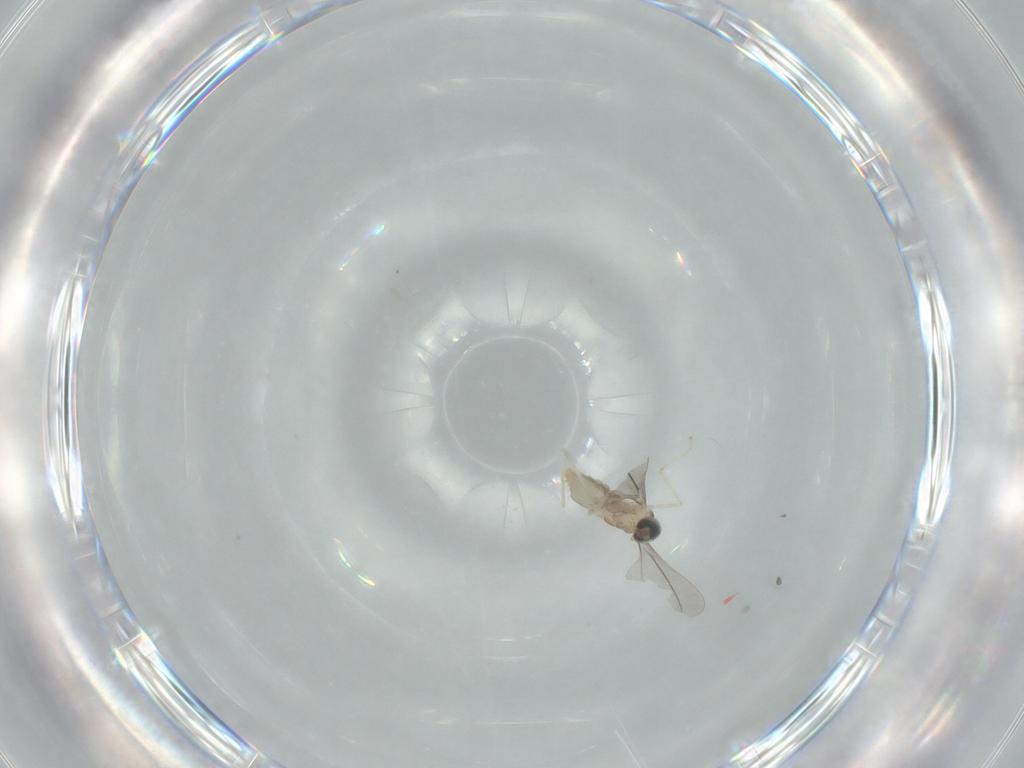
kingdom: Animalia
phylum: Arthropoda
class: Insecta
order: Diptera
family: Cecidomyiidae
